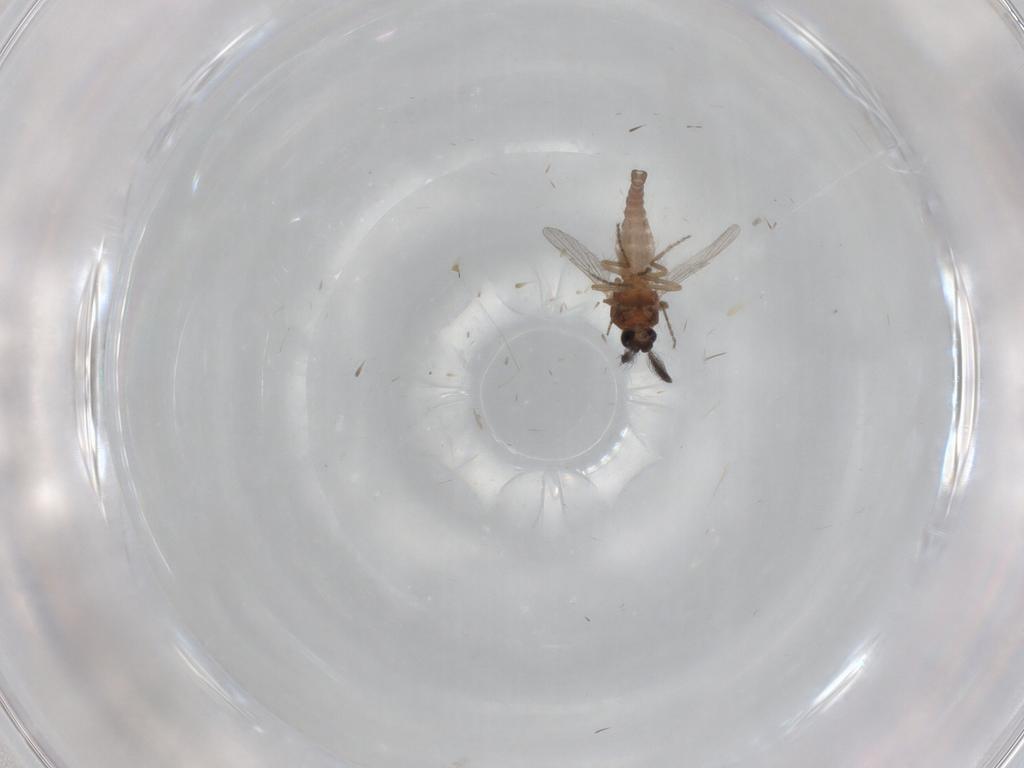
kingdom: Animalia
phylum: Arthropoda
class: Insecta
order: Diptera
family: Ceratopogonidae
